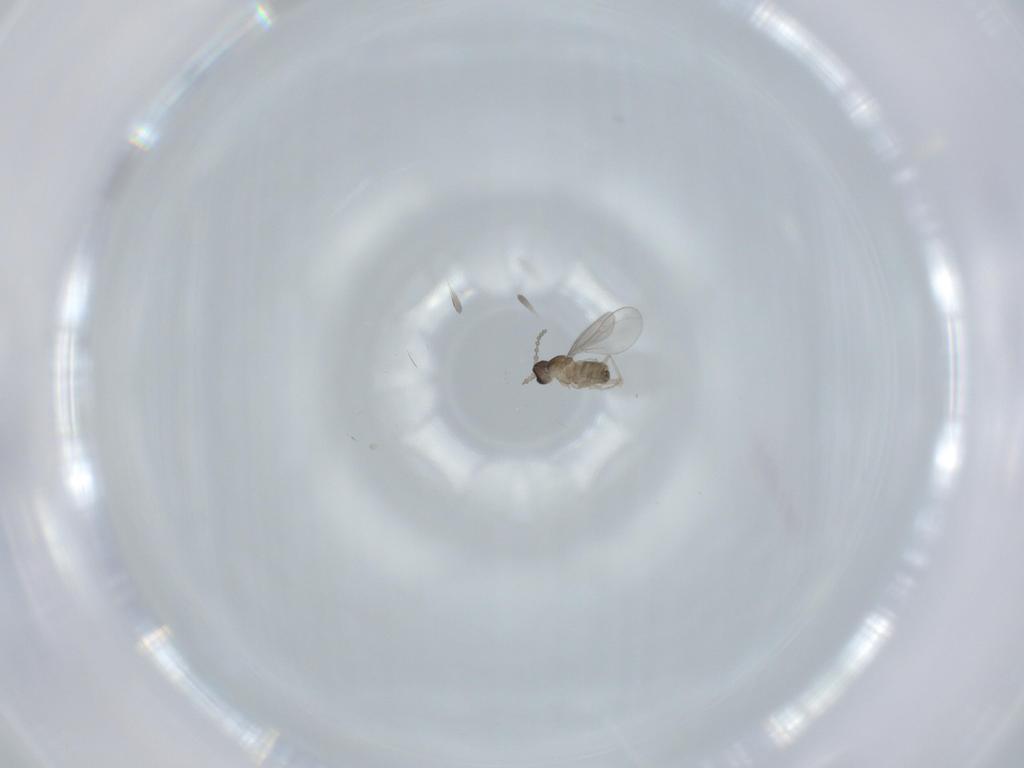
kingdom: Animalia
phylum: Arthropoda
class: Insecta
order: Diptera
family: Cecidomyiidae
